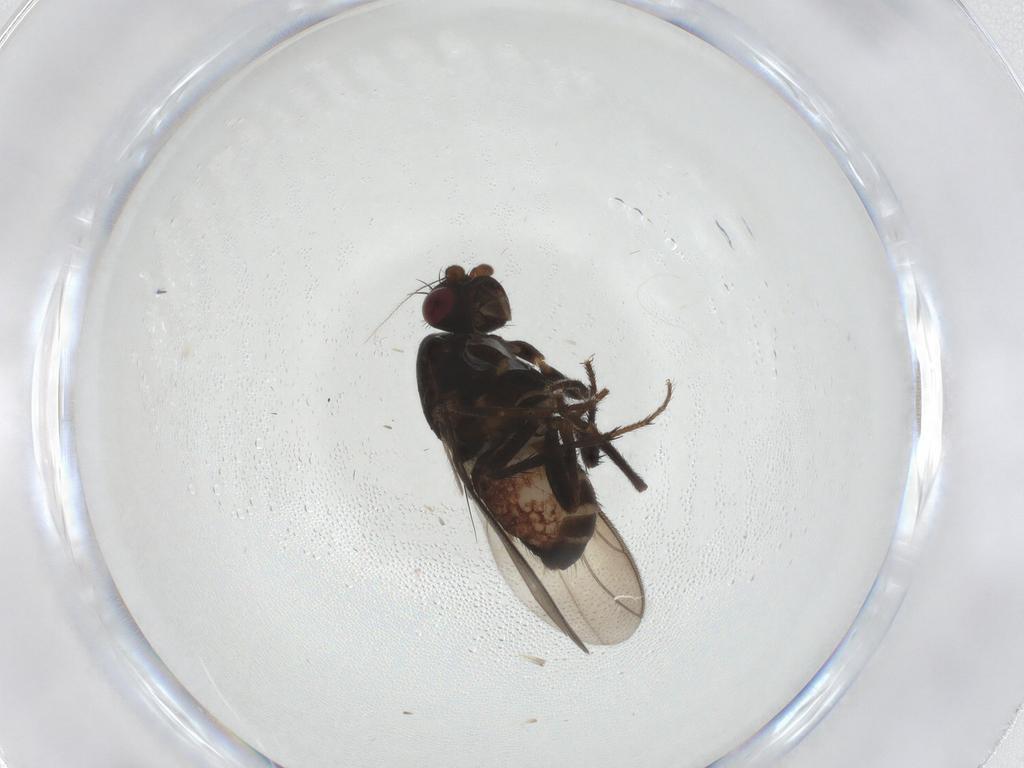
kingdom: Animalia
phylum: Arthropoda
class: Insecta
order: Diptera
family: Sphaeroceridae
